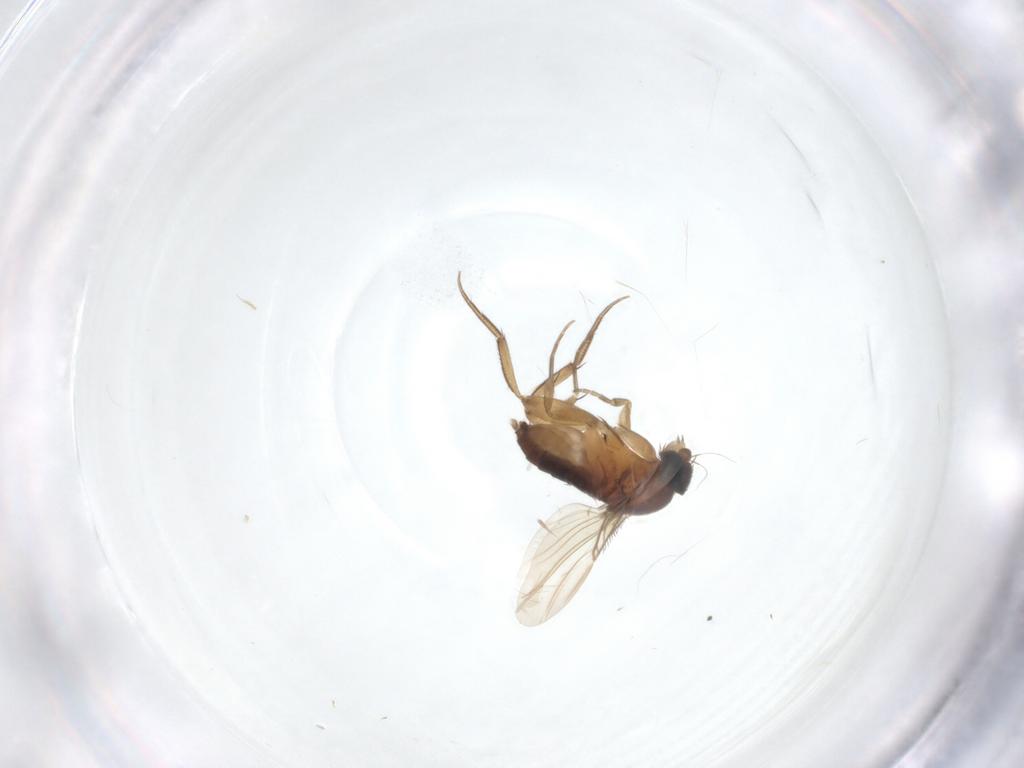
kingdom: Animalia
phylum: Arthropoda
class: Insecta
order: Diptera
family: Phoridae
